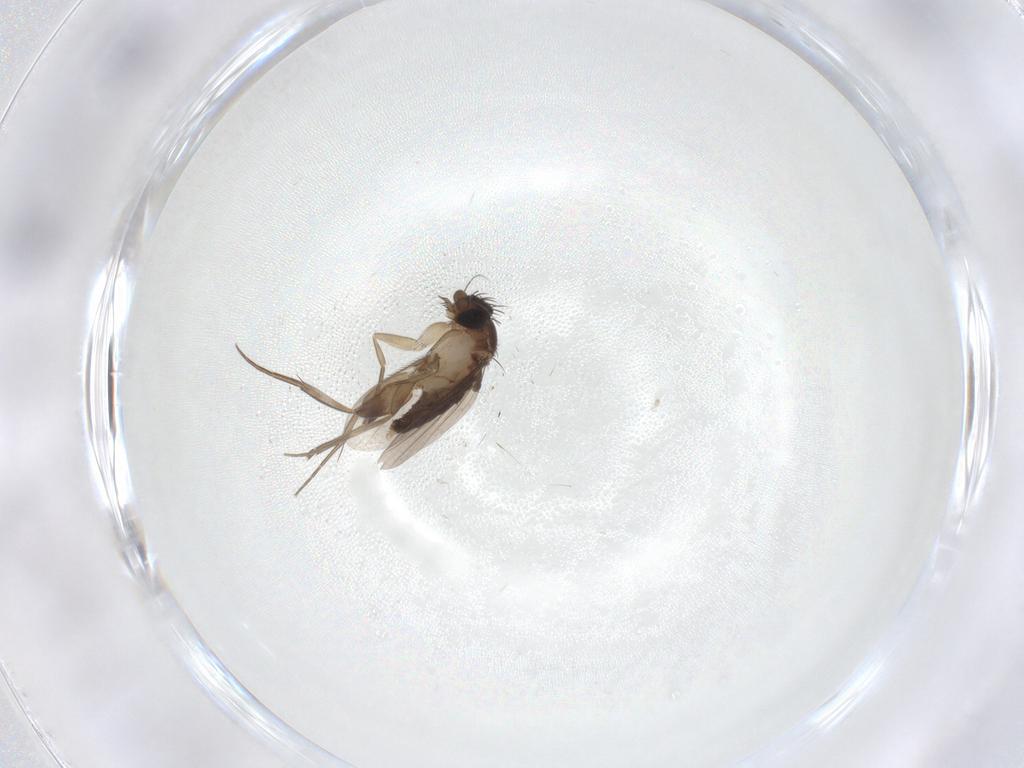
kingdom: Animalia
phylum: Arthropoda
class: Insecta
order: Diptera
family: Phoridae
